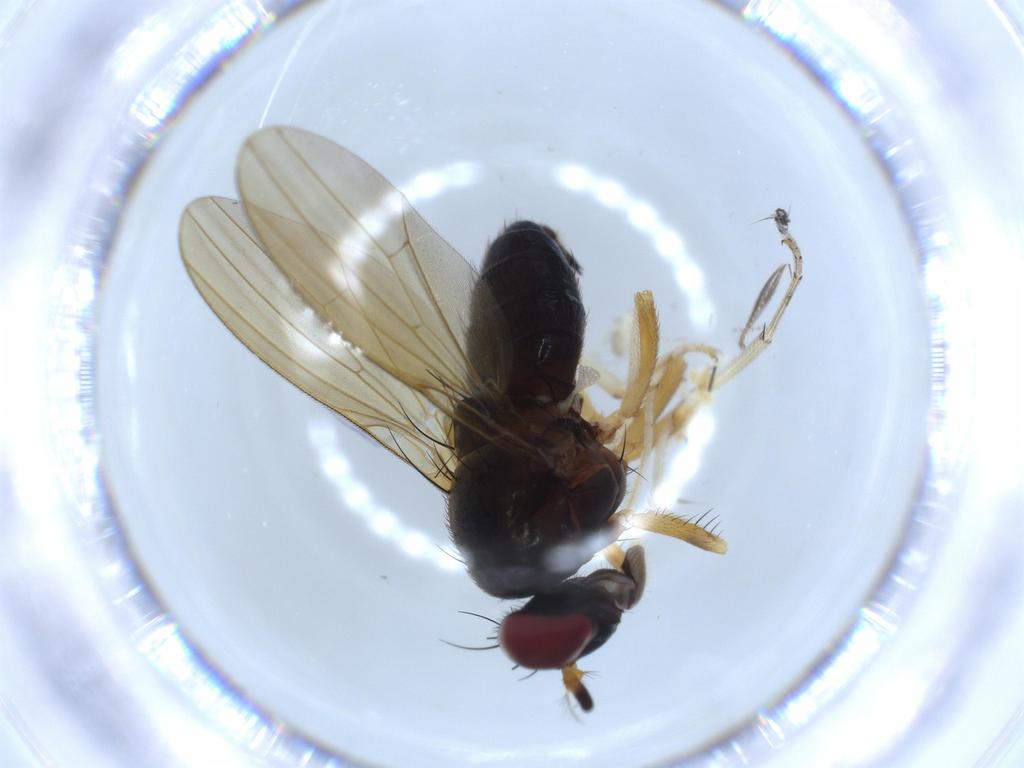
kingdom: Animalia
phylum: Arthropoda
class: Insecta
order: Diptera
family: Sciaridae
